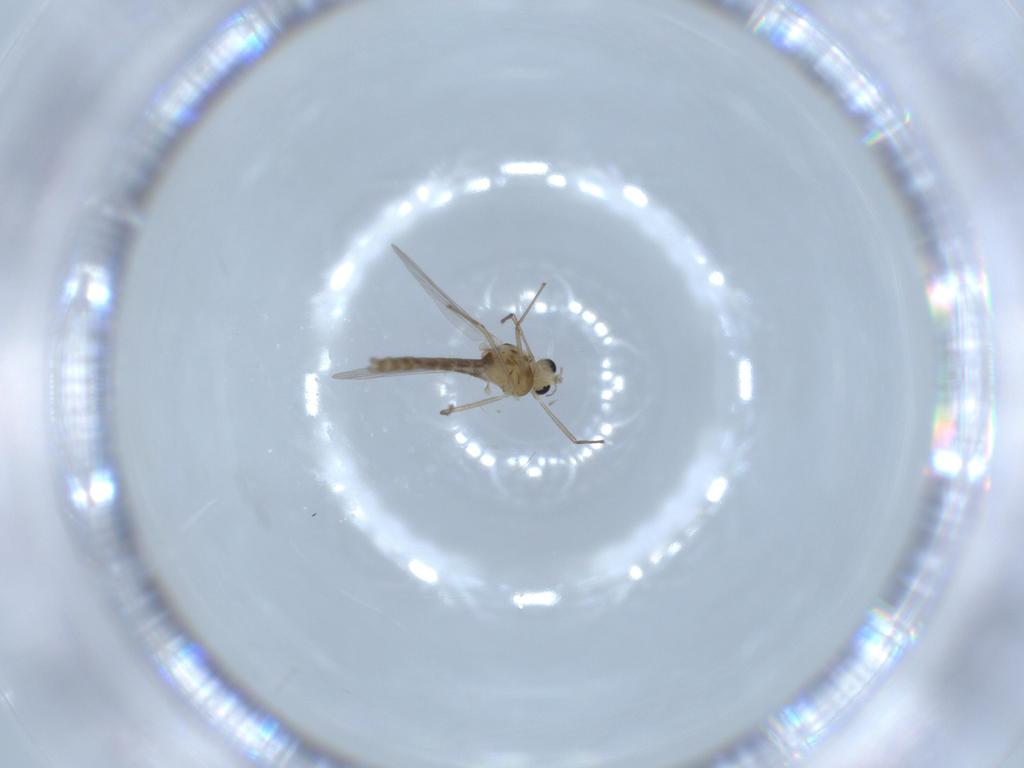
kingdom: Animalia
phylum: Arthropoda
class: Insecta
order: Diptera
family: Chironomidae
